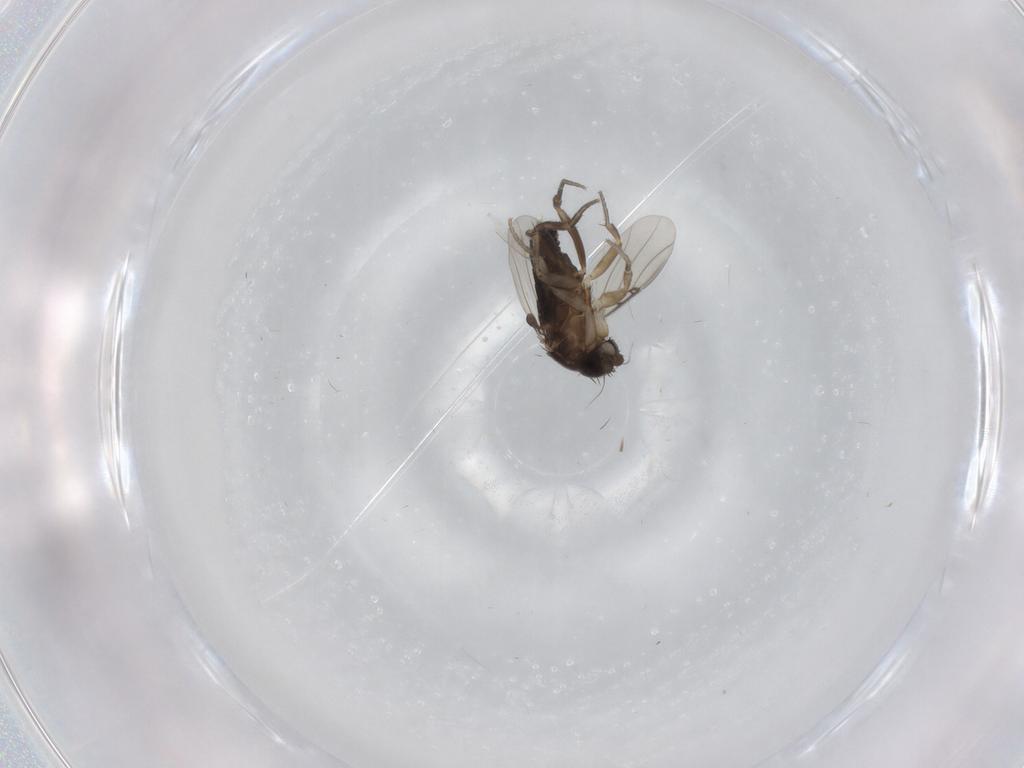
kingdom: Animalia
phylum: Arthropoda
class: Insecta
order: Diptera
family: Phoridae
